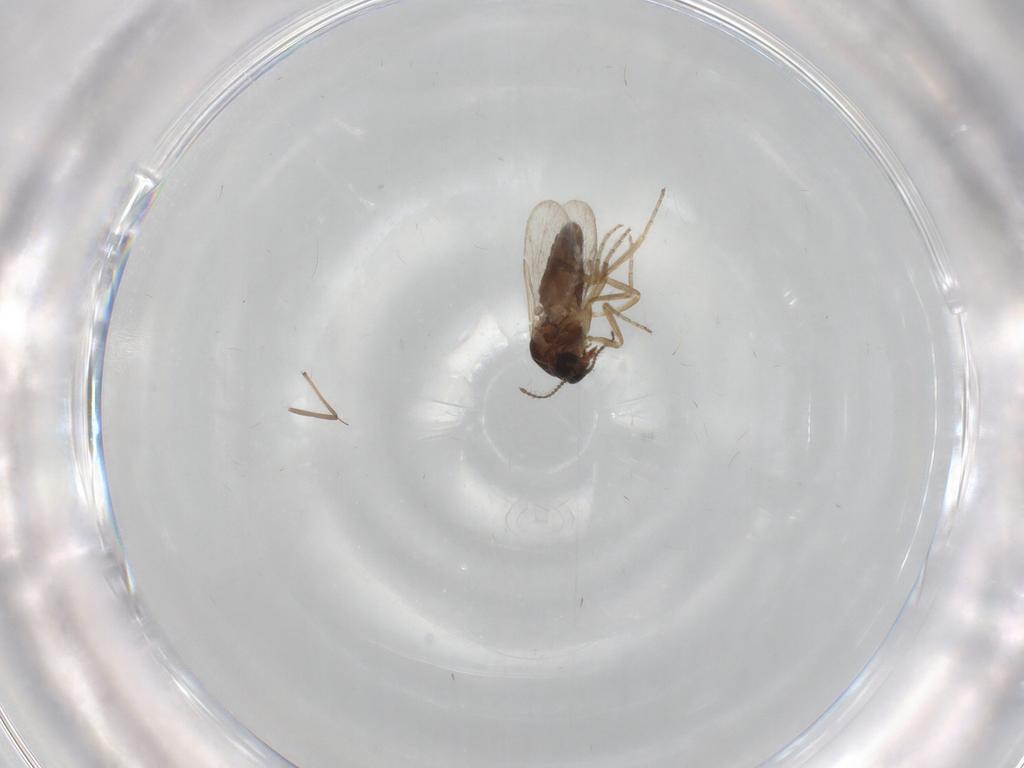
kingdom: Animalia
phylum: Arthropoda
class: Insecta
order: Diptera
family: Ceratopogonidae
